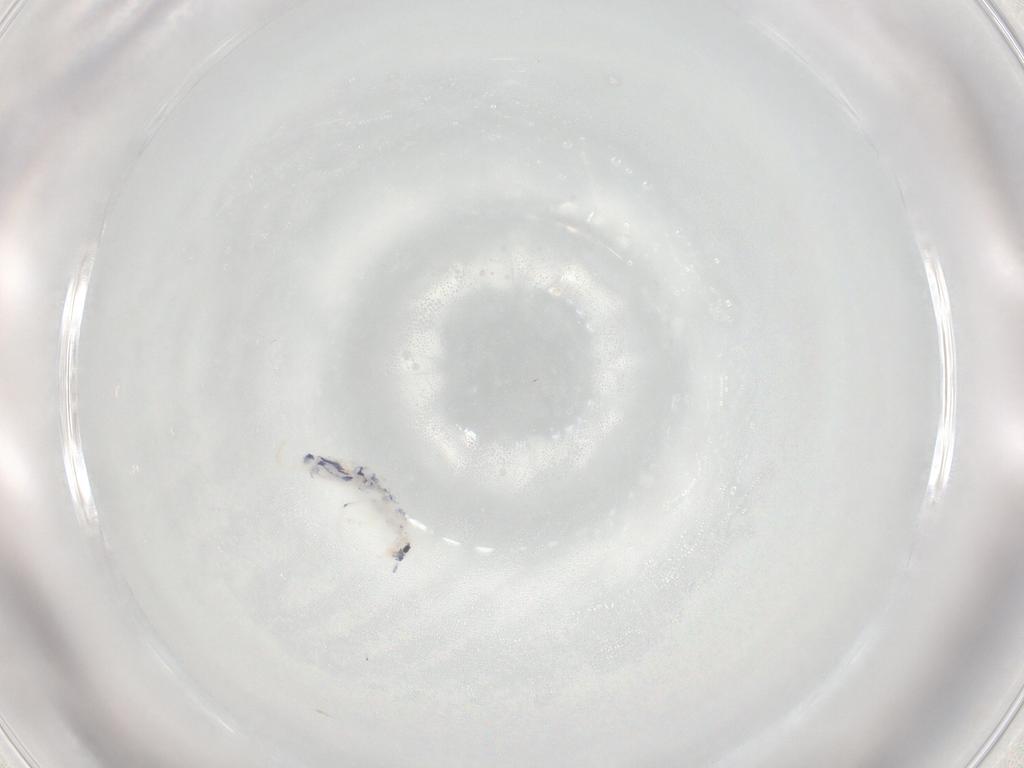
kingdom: Animalia
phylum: Arthropoda
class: Collembola
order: Entomobryomorpha
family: Entomobryidae
